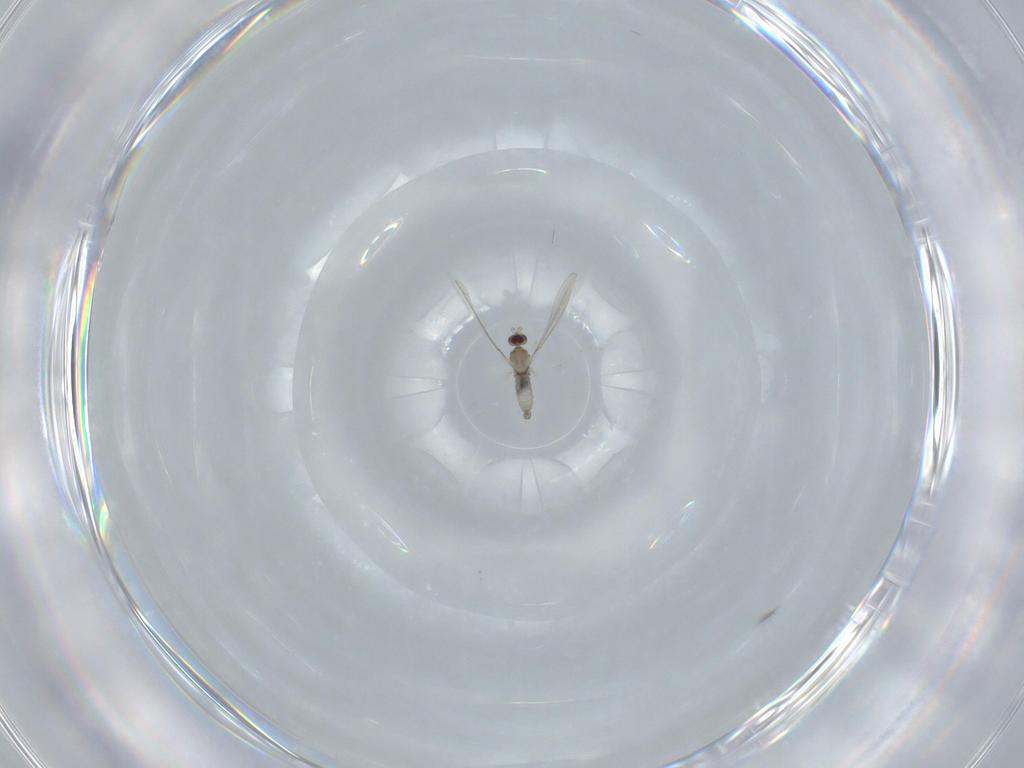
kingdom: Animalia
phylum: Arthropoda
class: Insecta
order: Diptera
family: Cecidomyiidae
